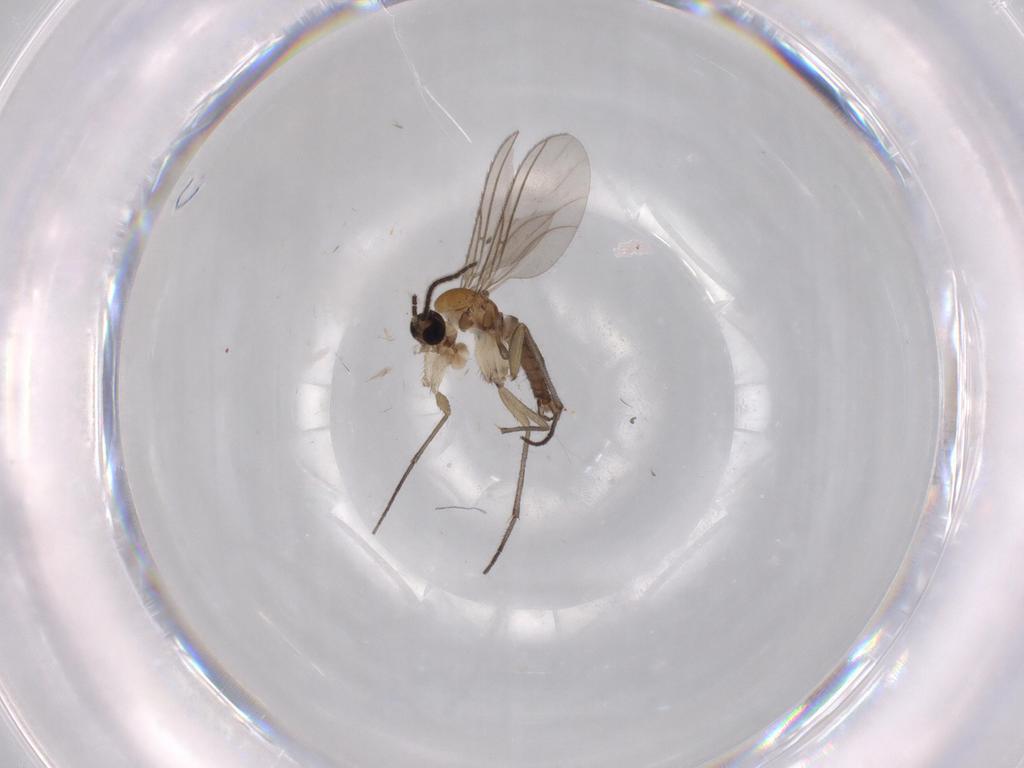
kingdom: Animalia
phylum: Arthropoda
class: Insecta
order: Diptera
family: Sciaridae
